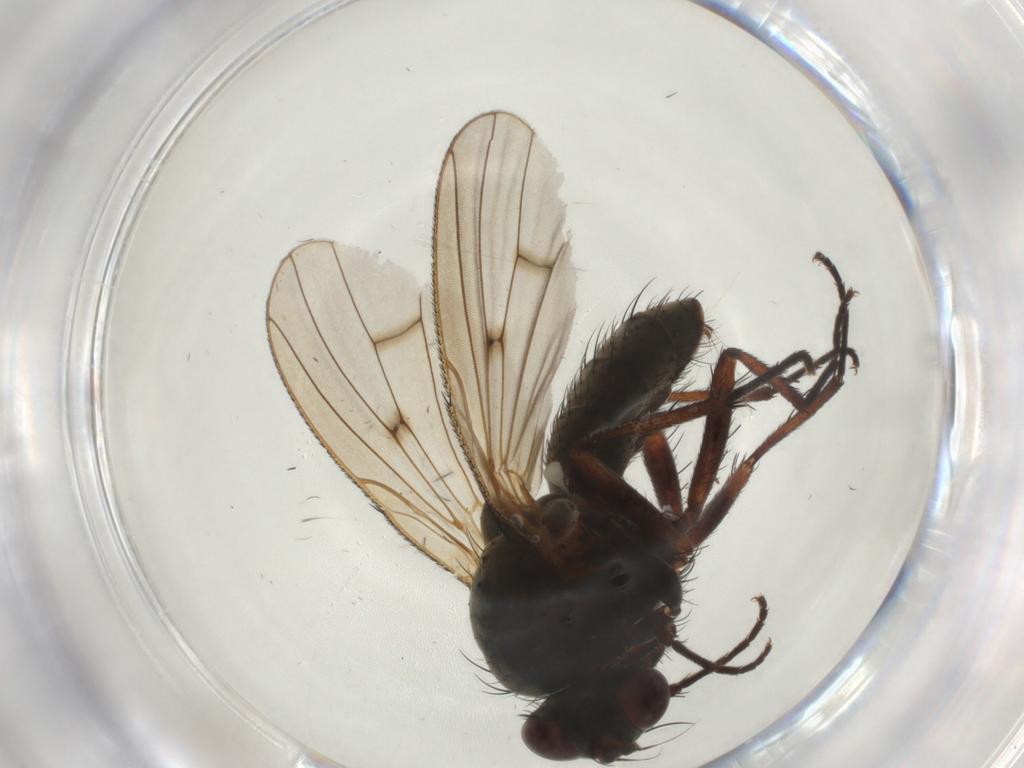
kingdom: Animalia
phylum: Arthropoda
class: Insecta
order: Diptera
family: Anthomyiidae
